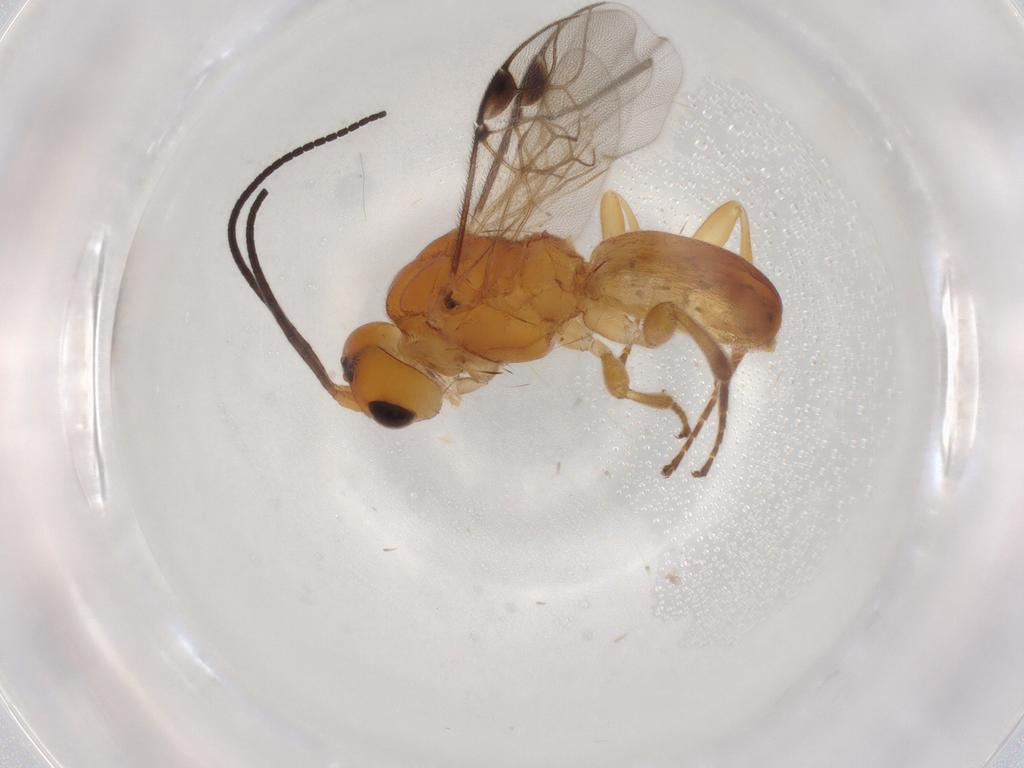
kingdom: Animalia
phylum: Arthropoda
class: Insecta
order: Hymenoptera
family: Braconidae
